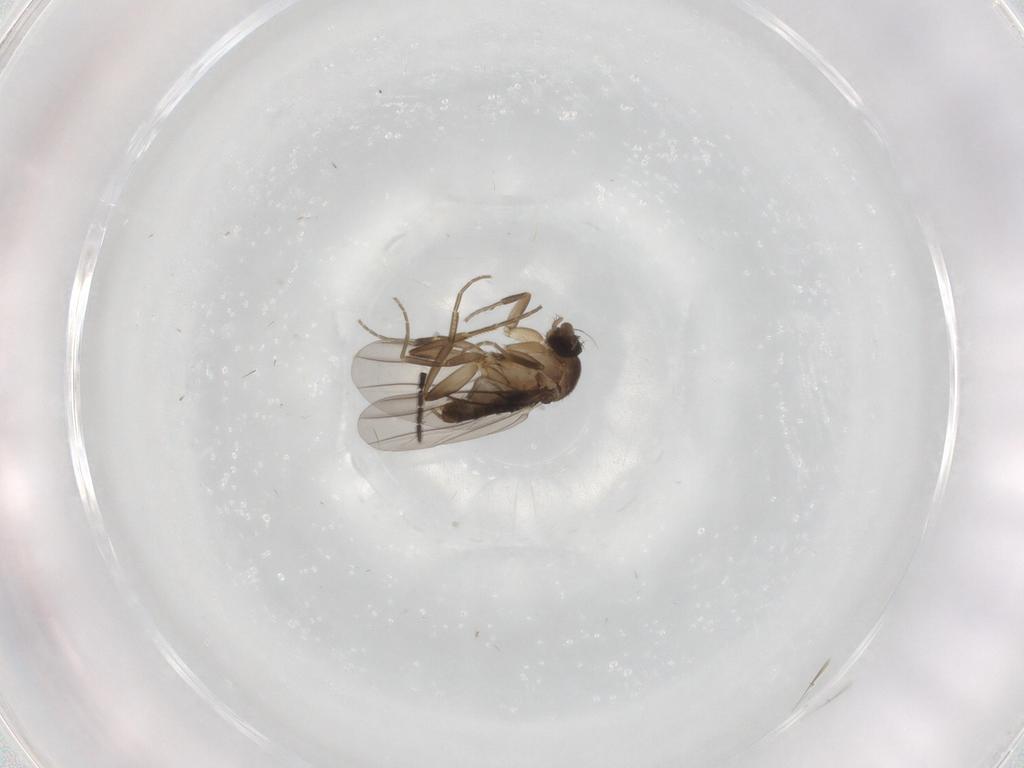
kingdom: Animalia
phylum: Arthropoda
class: Insecta
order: Diptera
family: Phoridae
